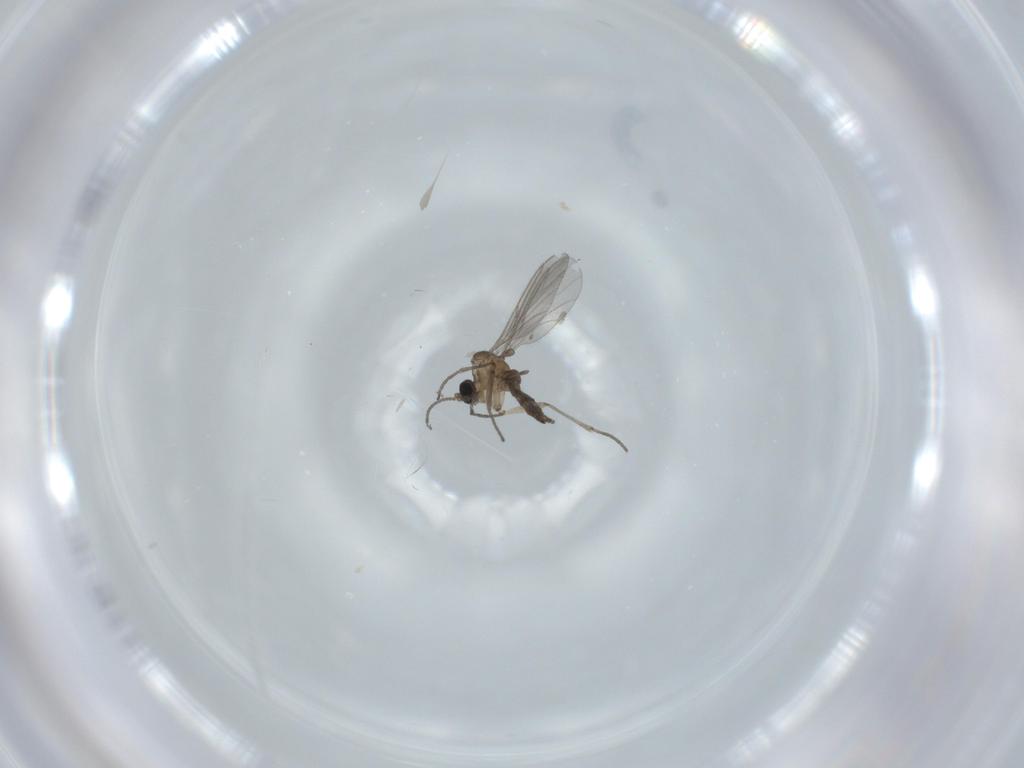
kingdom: Animalia
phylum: Arthropoda
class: Insecta
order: Diptera
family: Sciaridae
